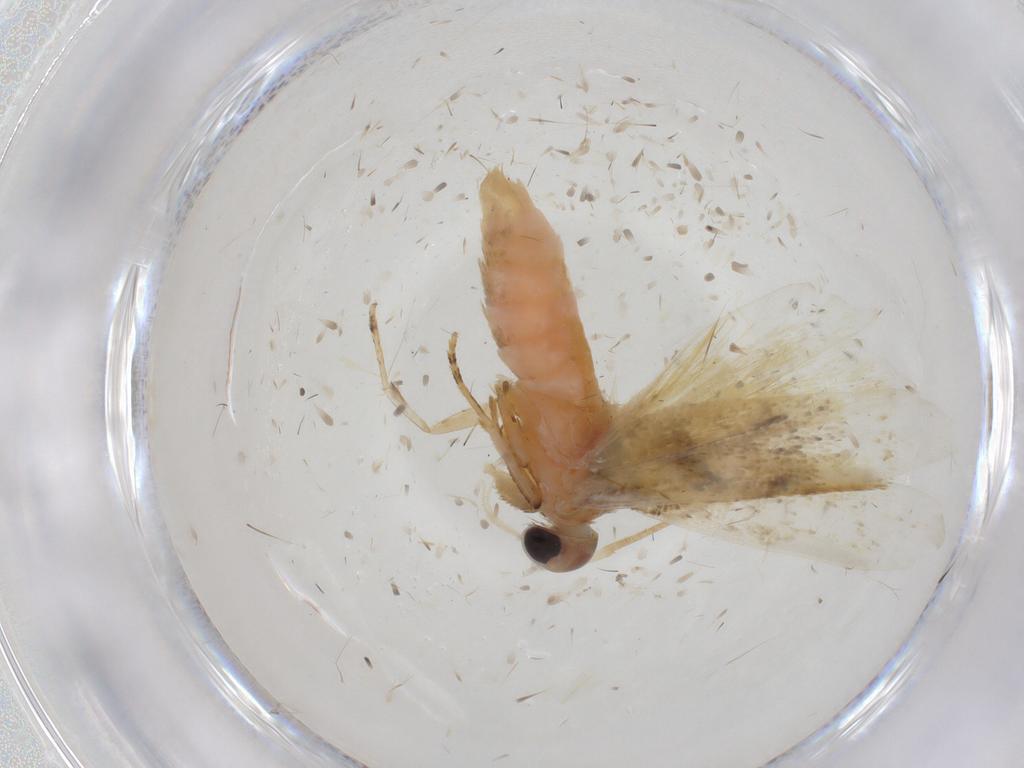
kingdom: Animalia
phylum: Arthropoda
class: Insecta
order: Lepidoptera
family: Gelechiidae
